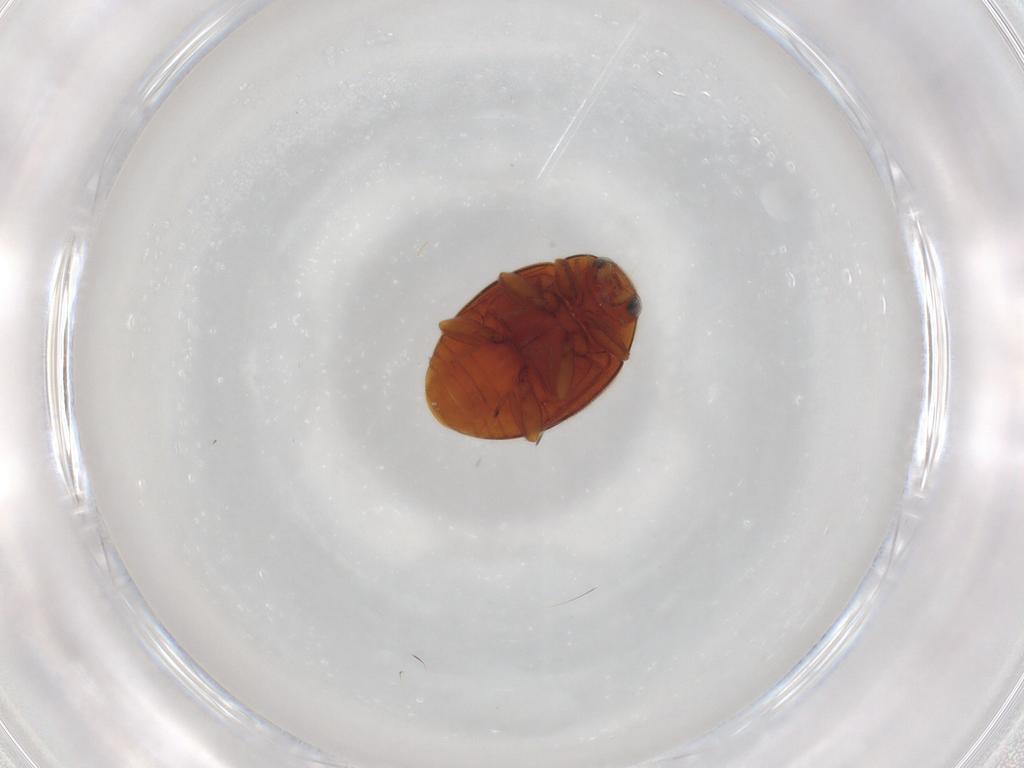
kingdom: Animalia
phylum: Arthropoda
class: Insecta
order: Coleoptera
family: Coccinellidae
